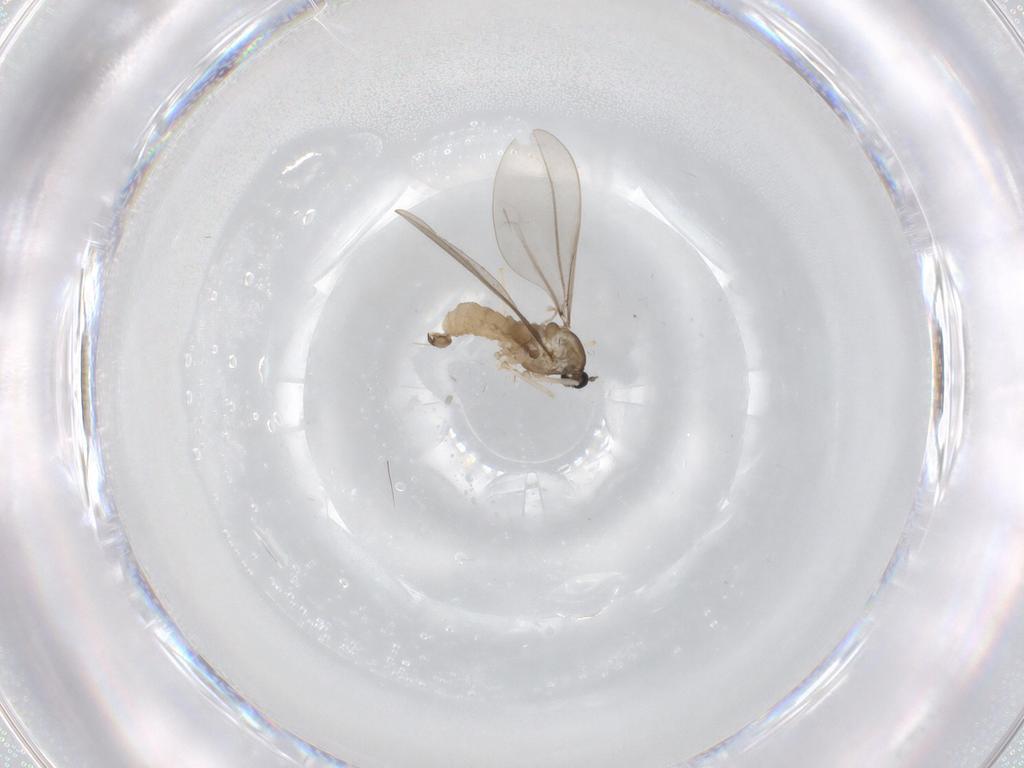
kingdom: Animalia
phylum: Arthropoda
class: Insecta
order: Diptera
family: Cecidomyiidae
